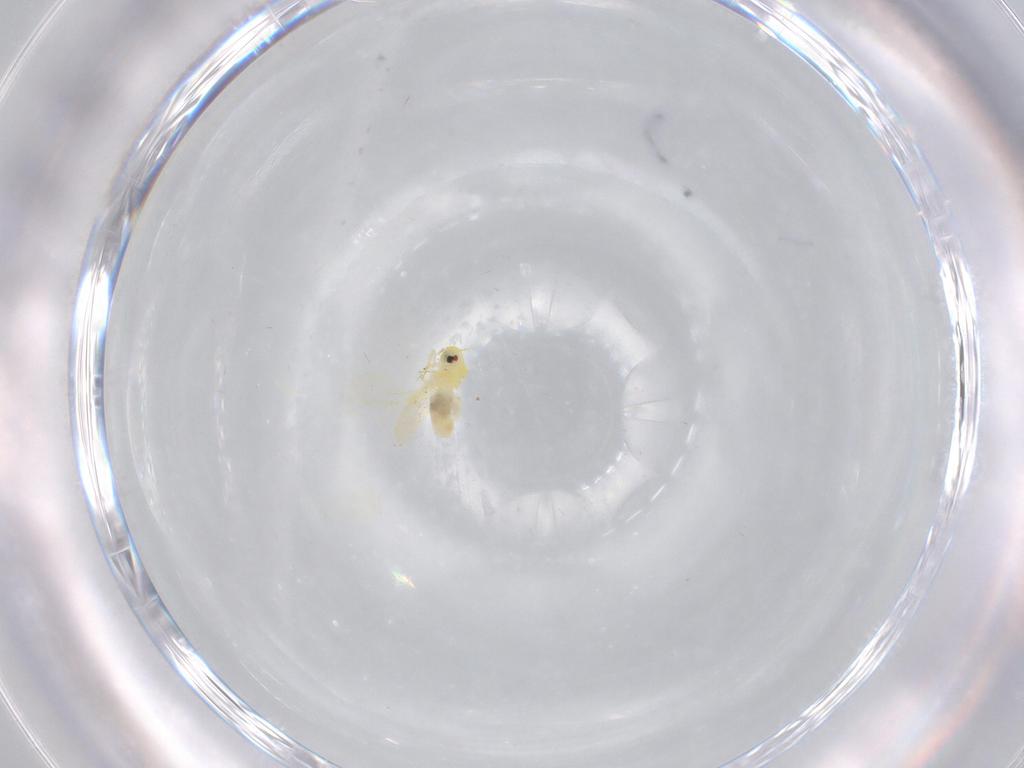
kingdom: Animalia
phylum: Arthropoda
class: Insecta
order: Hemiptera
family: Aleyrodidae
